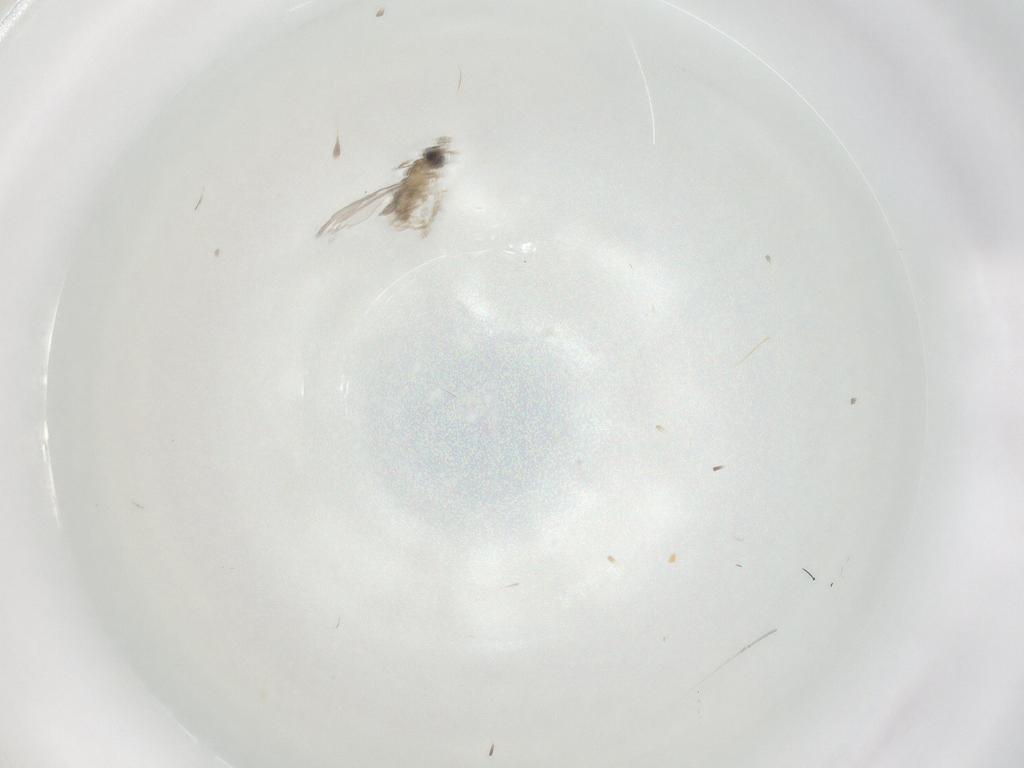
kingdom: Animalia
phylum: Arthropoda
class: Insecta
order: Diptera
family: Cecidomyiidae
